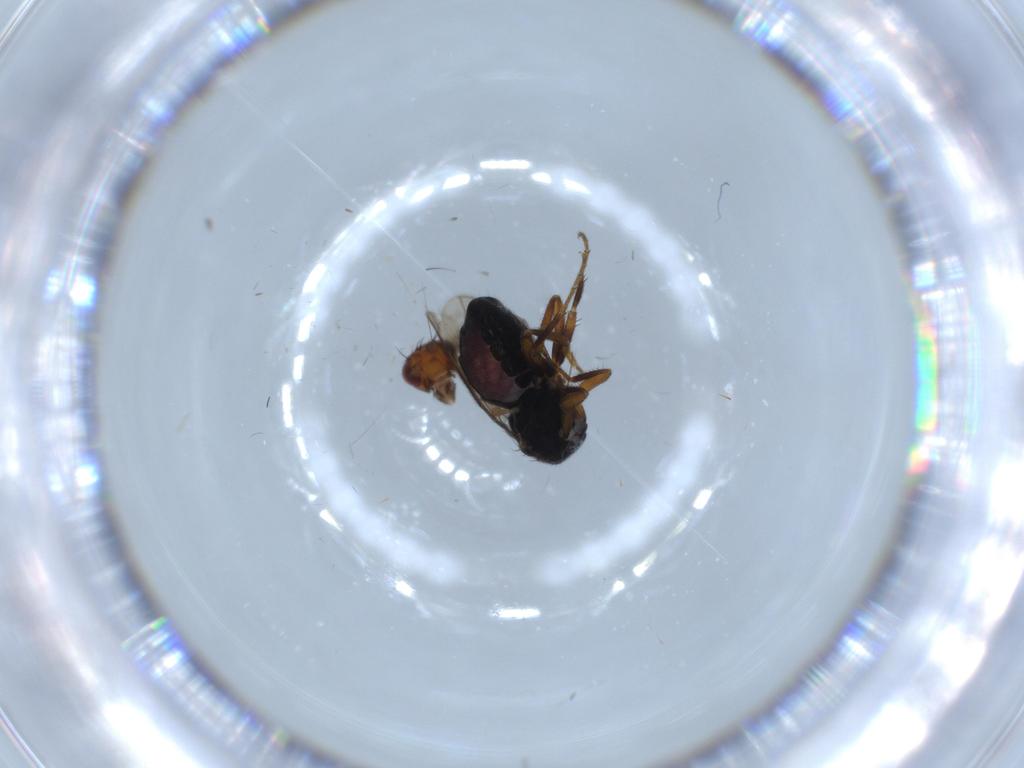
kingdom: Animalia
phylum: Arthropoda
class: Insecta
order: Diptera
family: Sphaeroceridae
